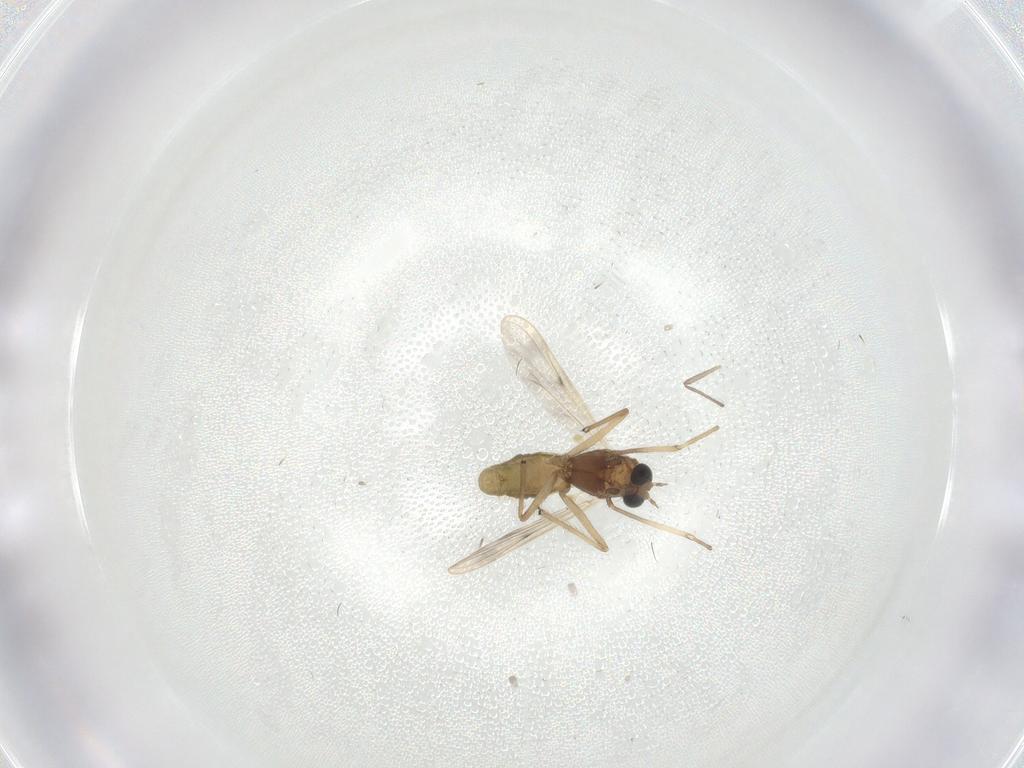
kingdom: Animalia
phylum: Arthropoda
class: Insecta
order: Diptera
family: Chironomidae
